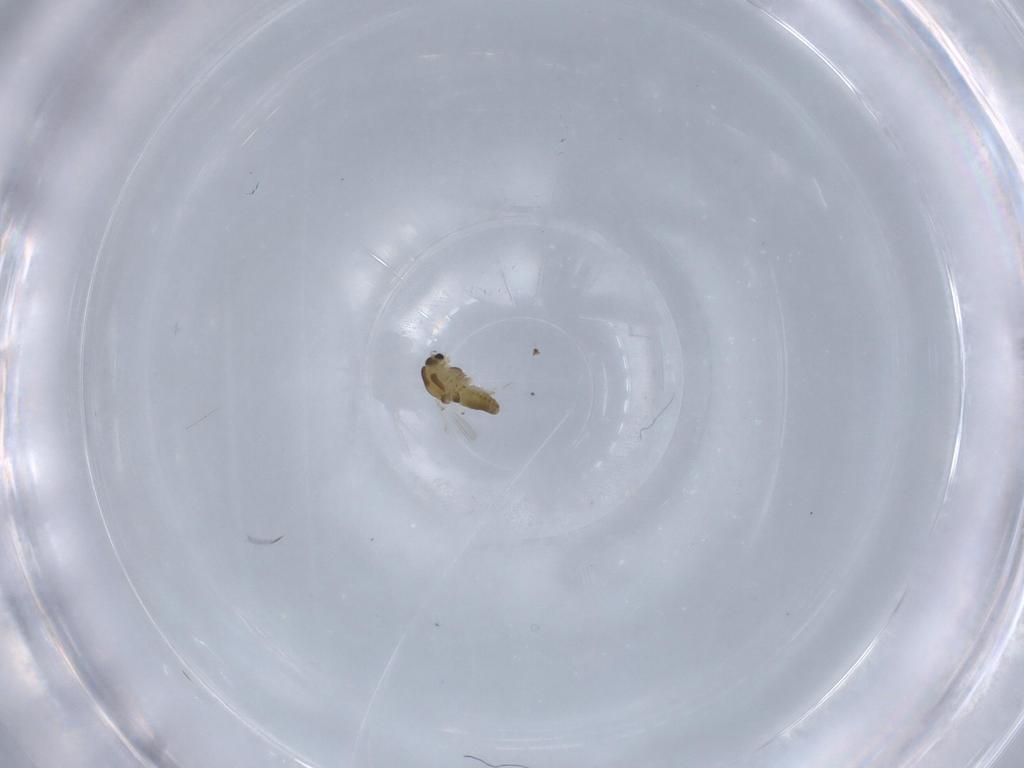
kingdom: Animalia
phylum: Arthropoda
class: Insecta
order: Diptera
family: Chironomidae
